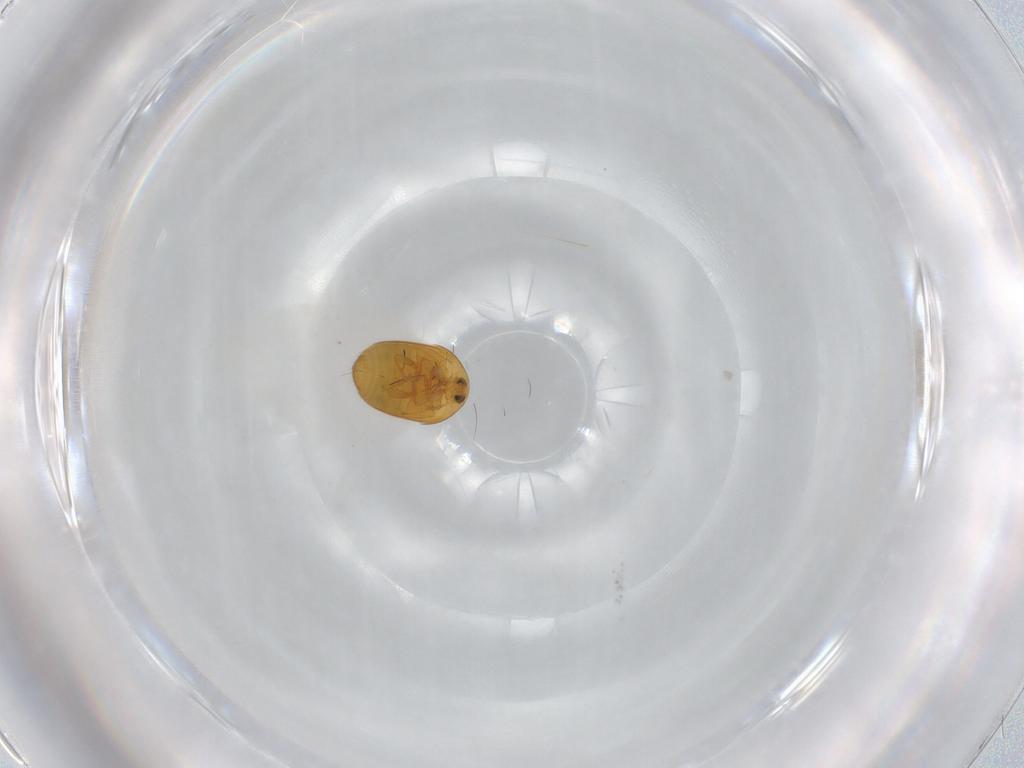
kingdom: Animalia
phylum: Arthropoda
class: Insecta
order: Coleoptera
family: Corylophidae
